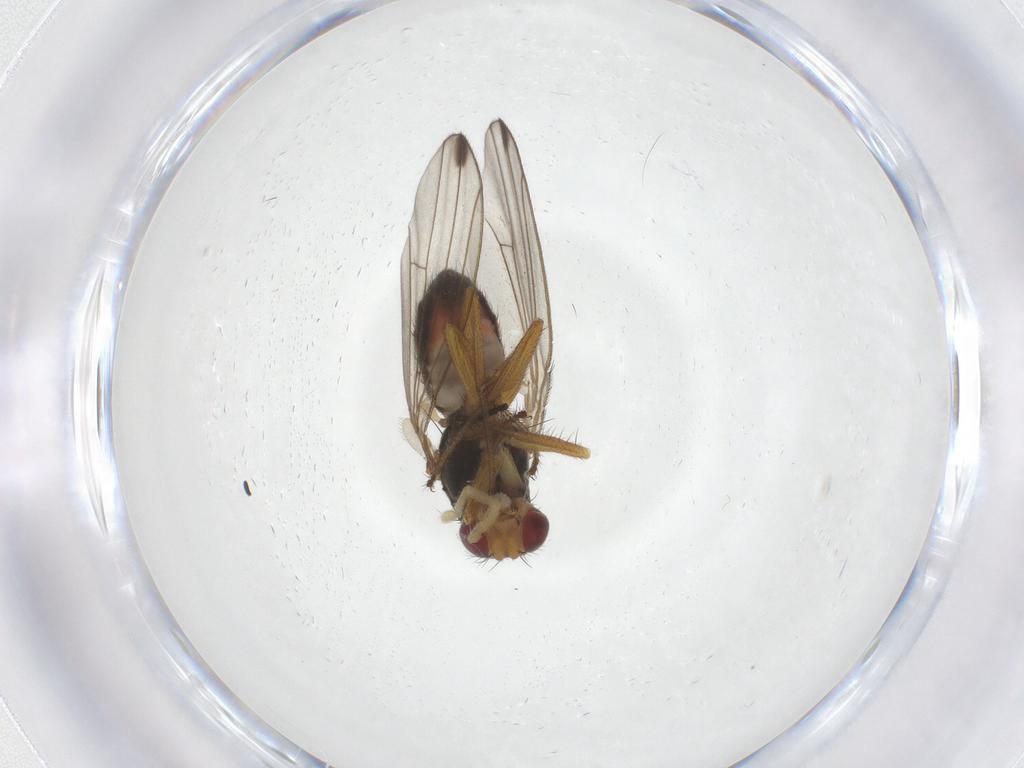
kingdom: Animalia
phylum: Arthropoda
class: Insecta
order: Diptera
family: Drosophilidae
